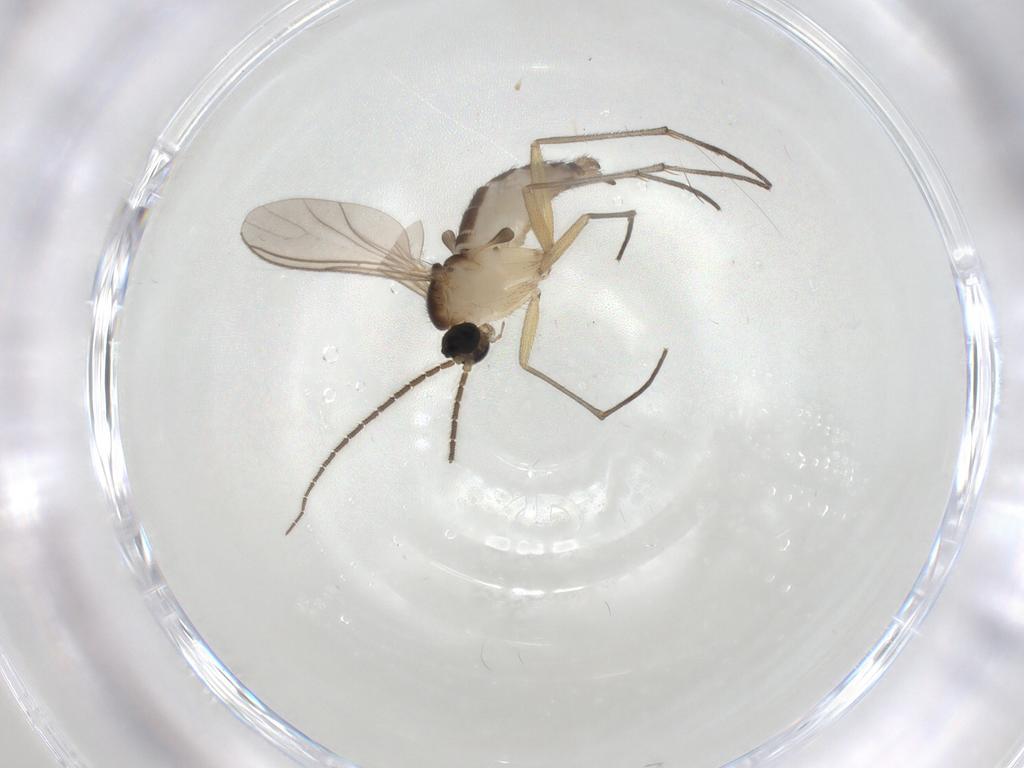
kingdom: Animalia
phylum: Arthropoda
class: Insecta
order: Diptera
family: Sciaridae
